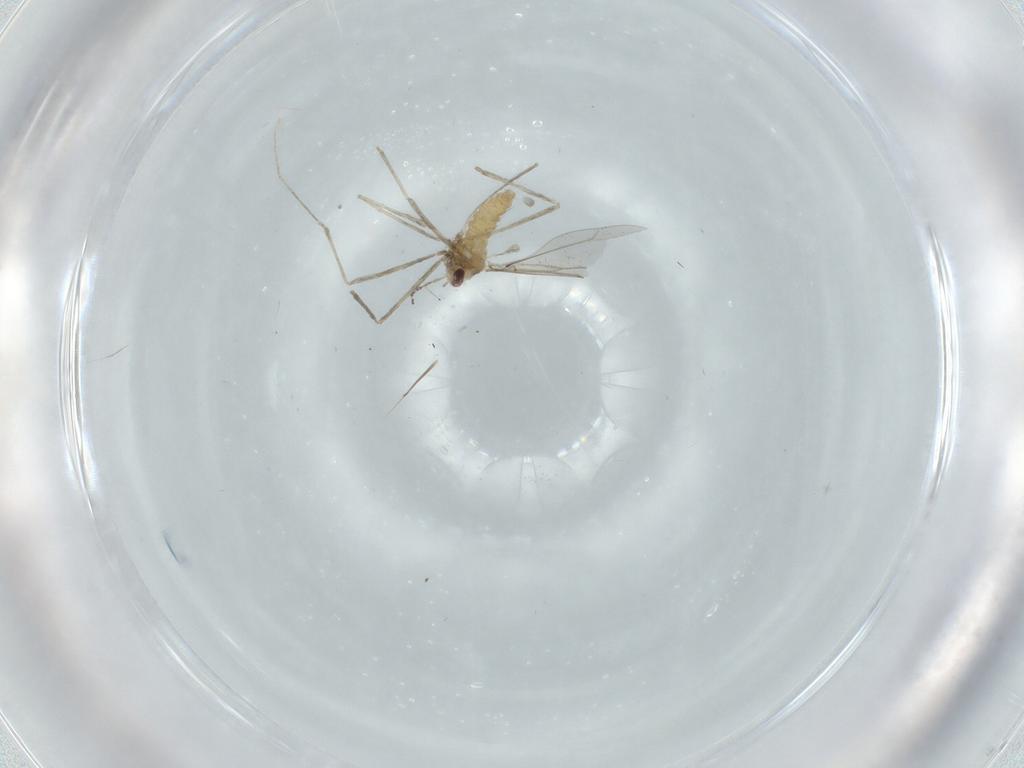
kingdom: Animalia
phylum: Arthropoda
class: Insecta
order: Diptera
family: Cecidomyiidae
